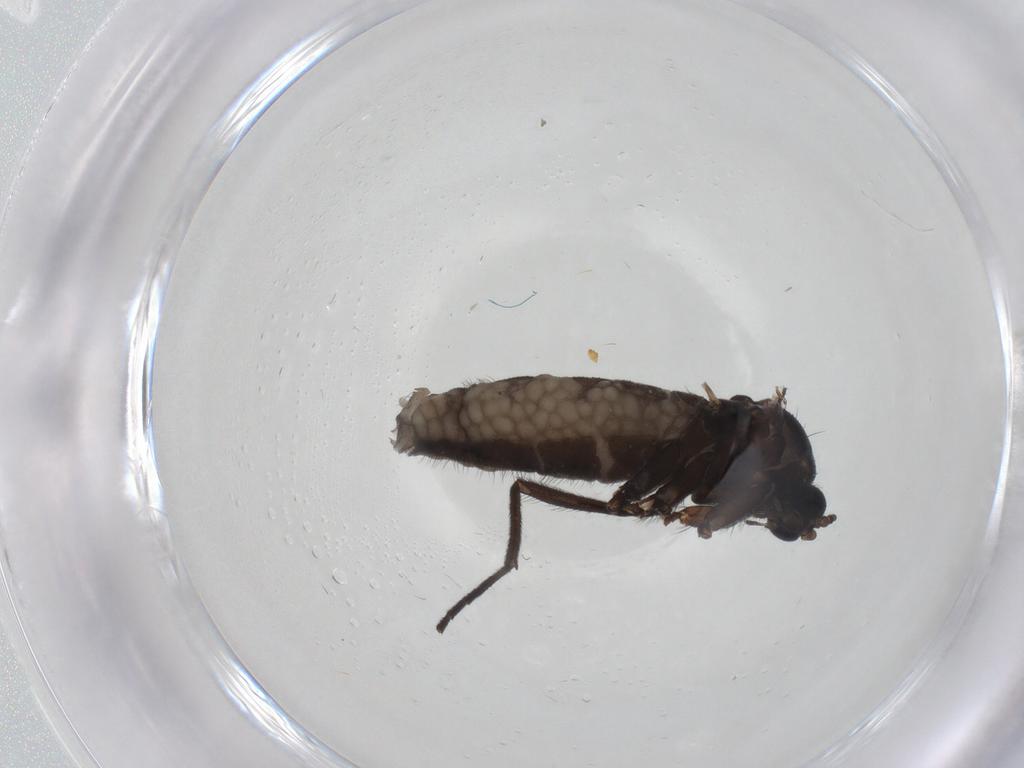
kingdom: Animalia
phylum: Arthropoda
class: Insecta
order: Diptera
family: Sciaridae
